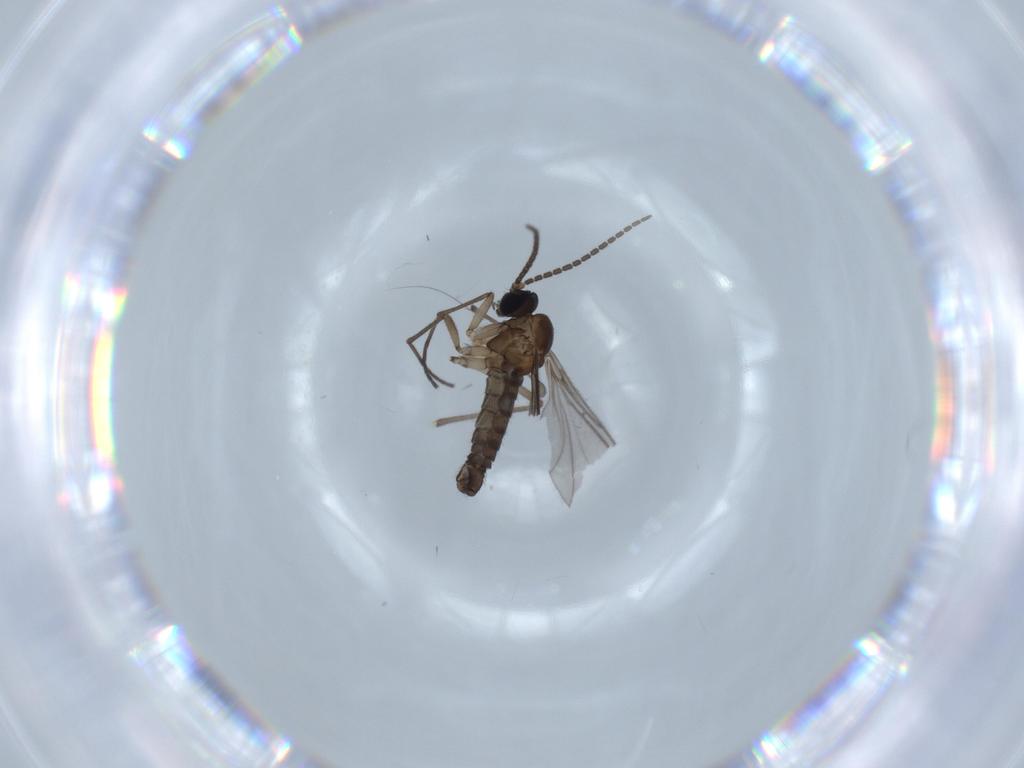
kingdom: Animalia
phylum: Arthropoda
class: Insecta
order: Diptera
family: Sciaridae
